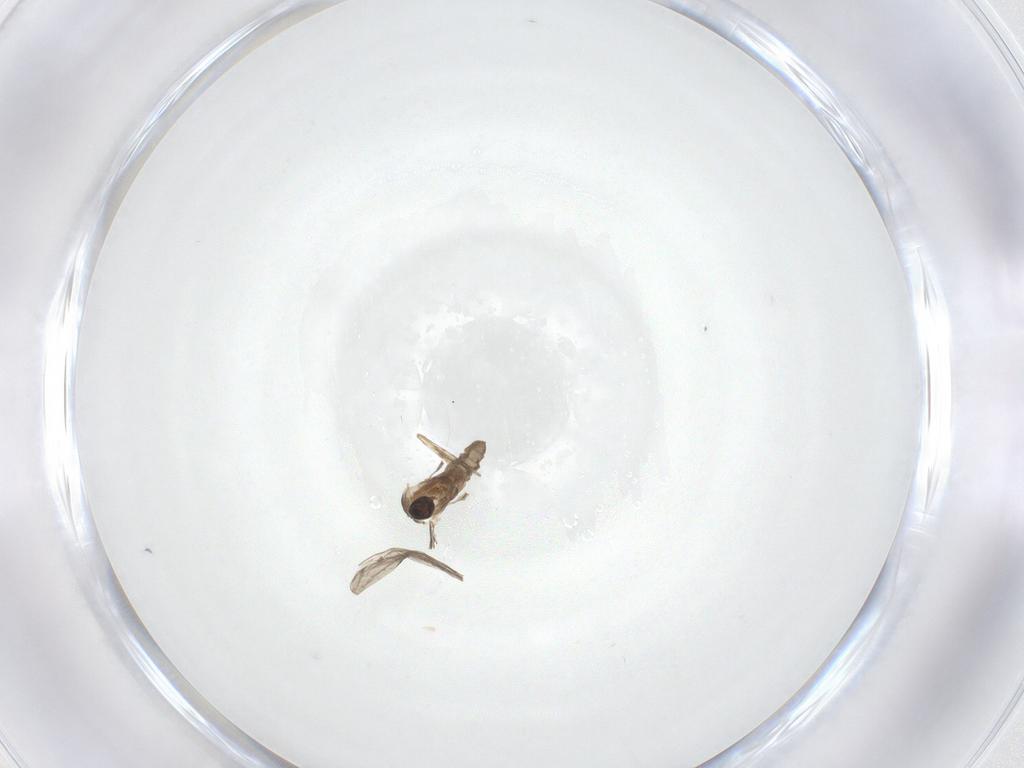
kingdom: Animalia
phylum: Arthropoda
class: Insecta
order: Diptera
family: Cecidomyiidae
